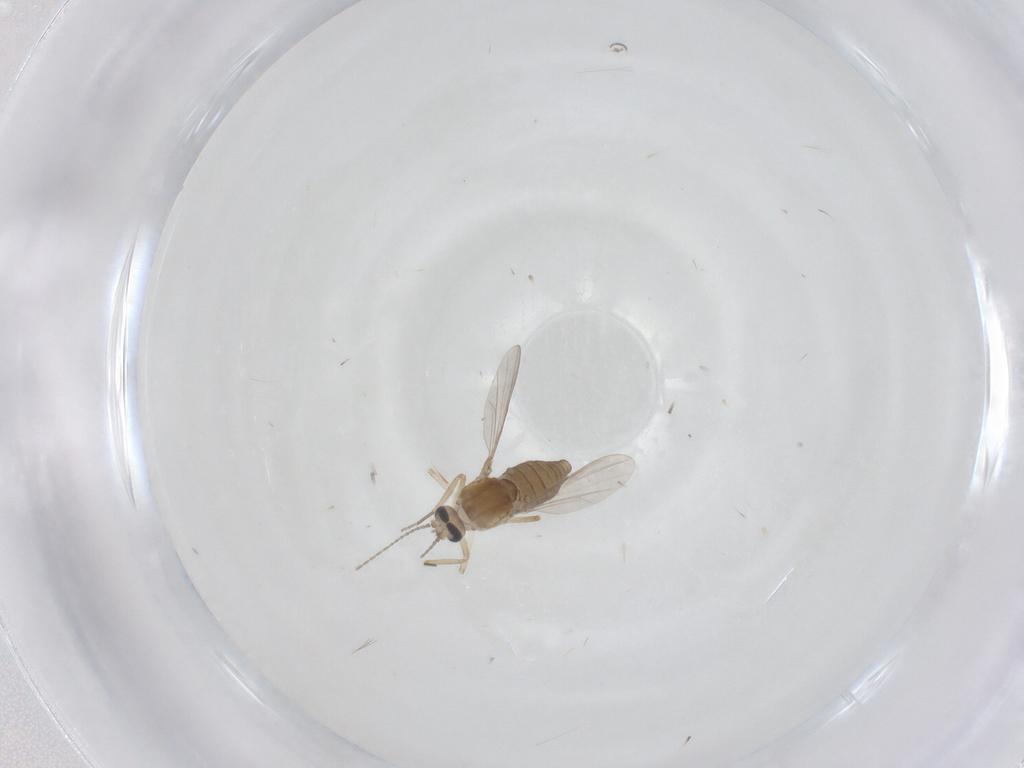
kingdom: Animalia
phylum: Arthropoda
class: Insecta
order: Diptera
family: Ceratopogonidae
